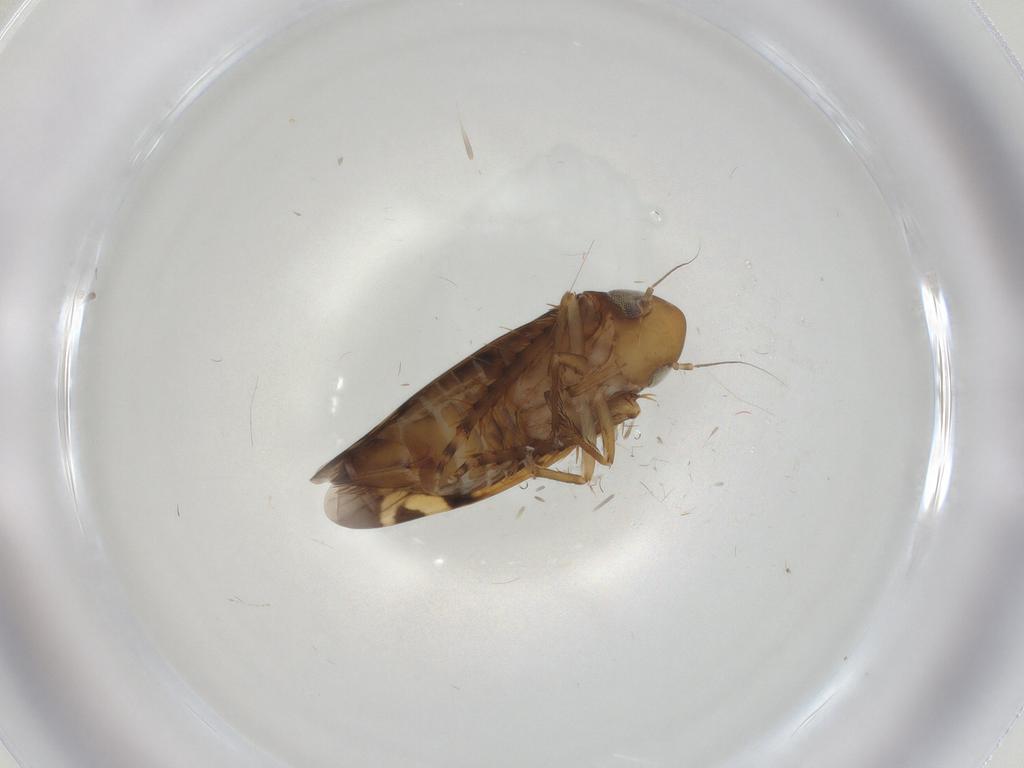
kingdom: Animalia
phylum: Arthropoda
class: Insecta
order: Hemiptera
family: Cicadellidae
